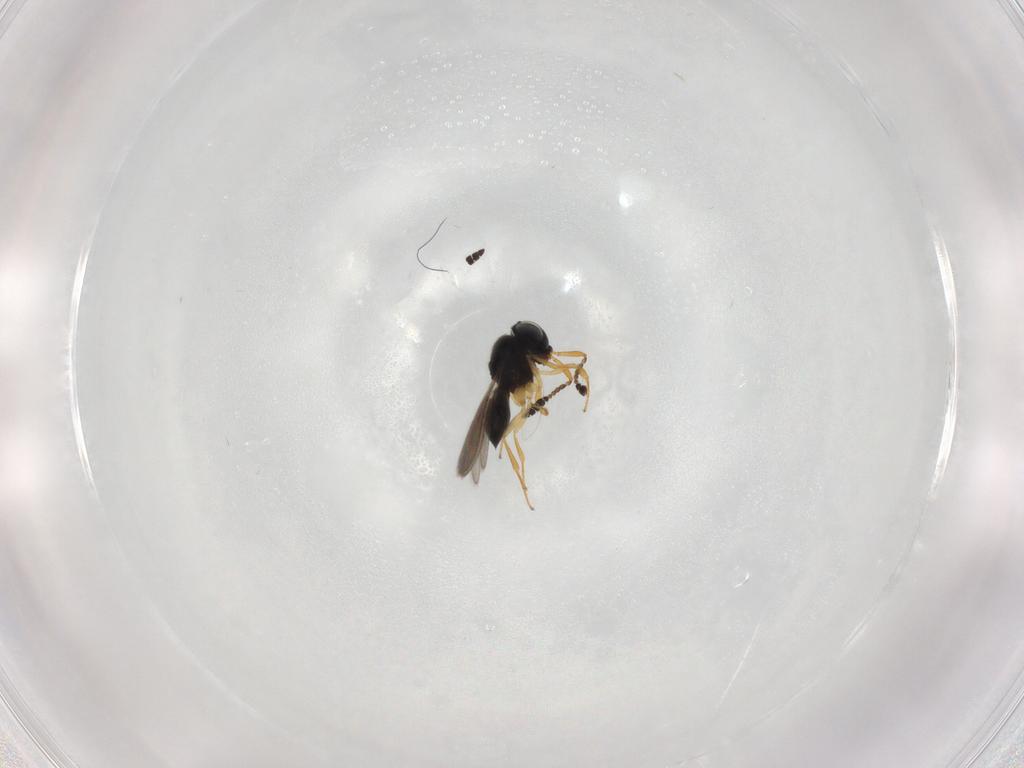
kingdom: Animalia
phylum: Arthropoda
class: Insecta
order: Hymenoptera
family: Scelionidae
